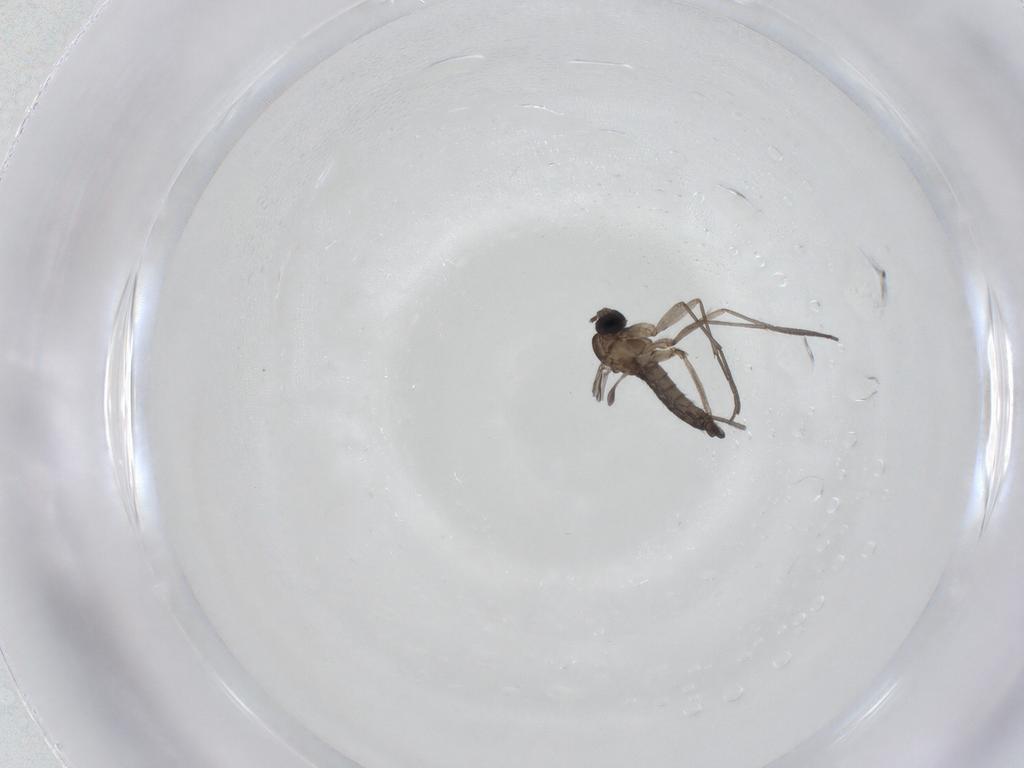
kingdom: Animalia
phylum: Arthropoda
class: Insecta
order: Diptera
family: Sciaridae
